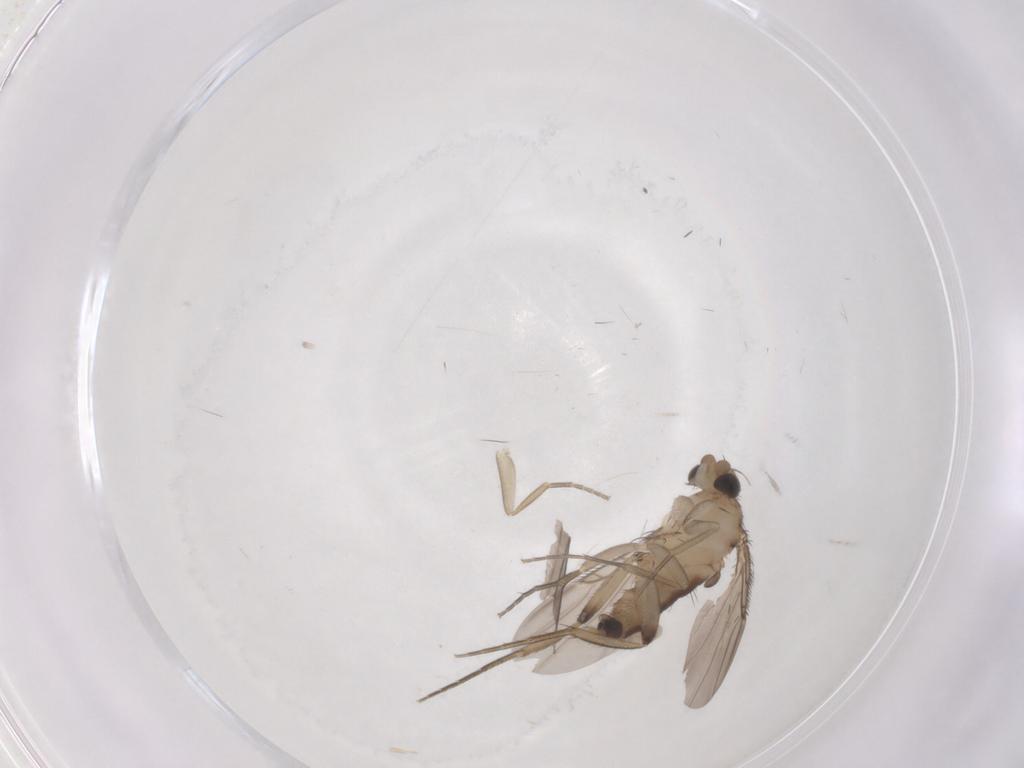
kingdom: Animalia
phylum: Arthropoda
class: Insecta
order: Diptera
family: Phoridae
